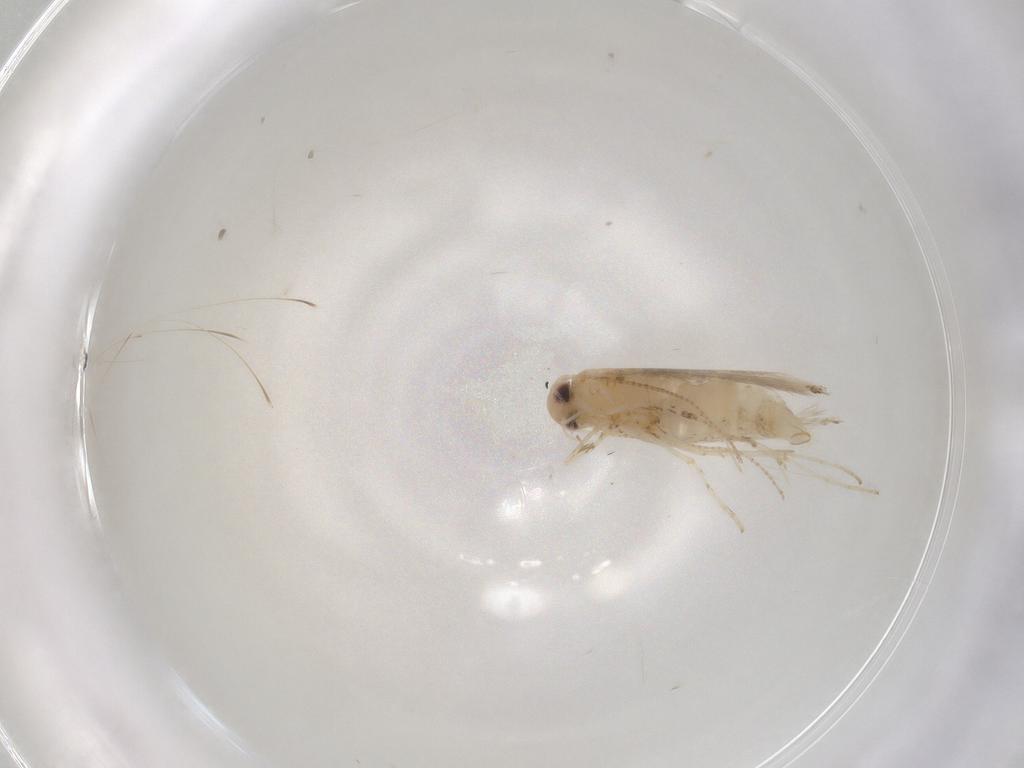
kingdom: Animalia
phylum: Arthropoda
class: Insecta
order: Lepidoptera
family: Gracillariidae
